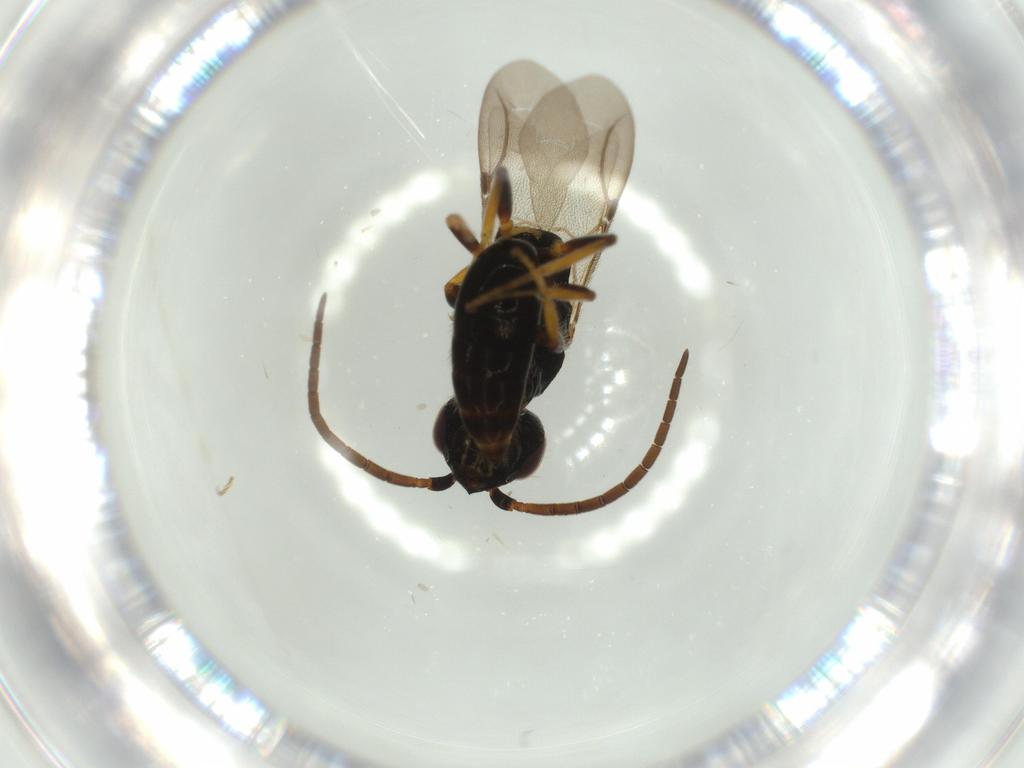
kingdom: Animalia
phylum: Arthropoda
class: Insecta
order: Hymenoptera
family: Bethylidae
